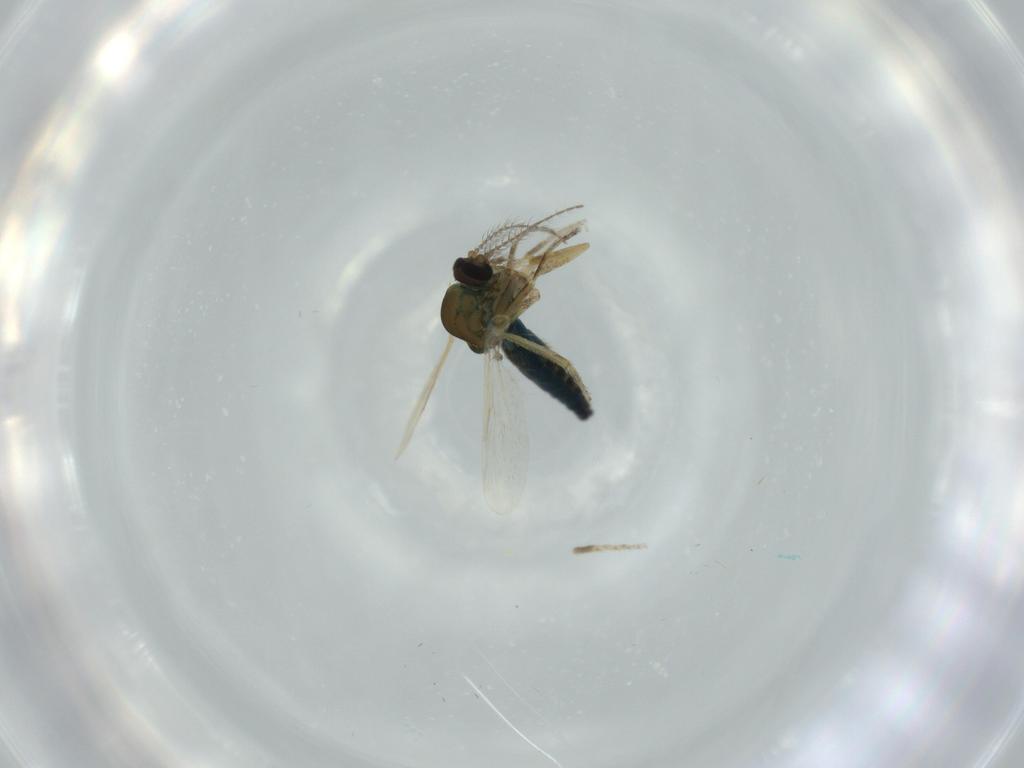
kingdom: Animalia
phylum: Arthropoda
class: Insecta
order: Diptera
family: Ceratopogonidae
